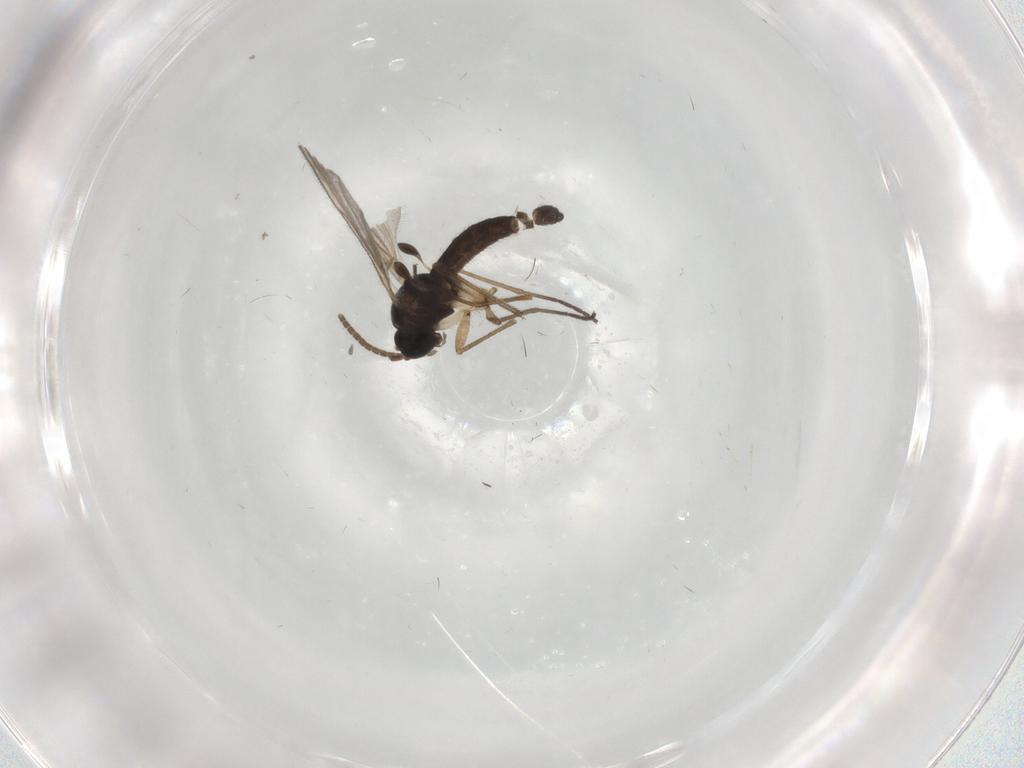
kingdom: Animalia
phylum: Arthropoda
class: Insecta
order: Diptera
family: Sciaridae
